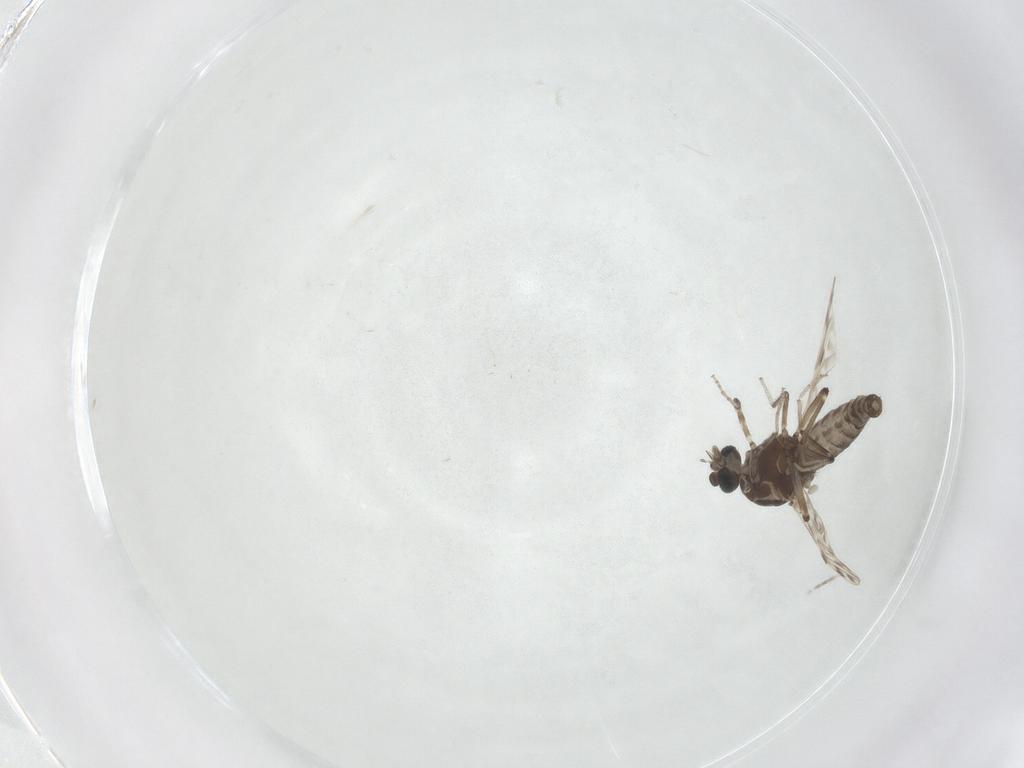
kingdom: Animalia
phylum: Arthropoda
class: Insecta
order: Diptera
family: Ceratopogonidae
